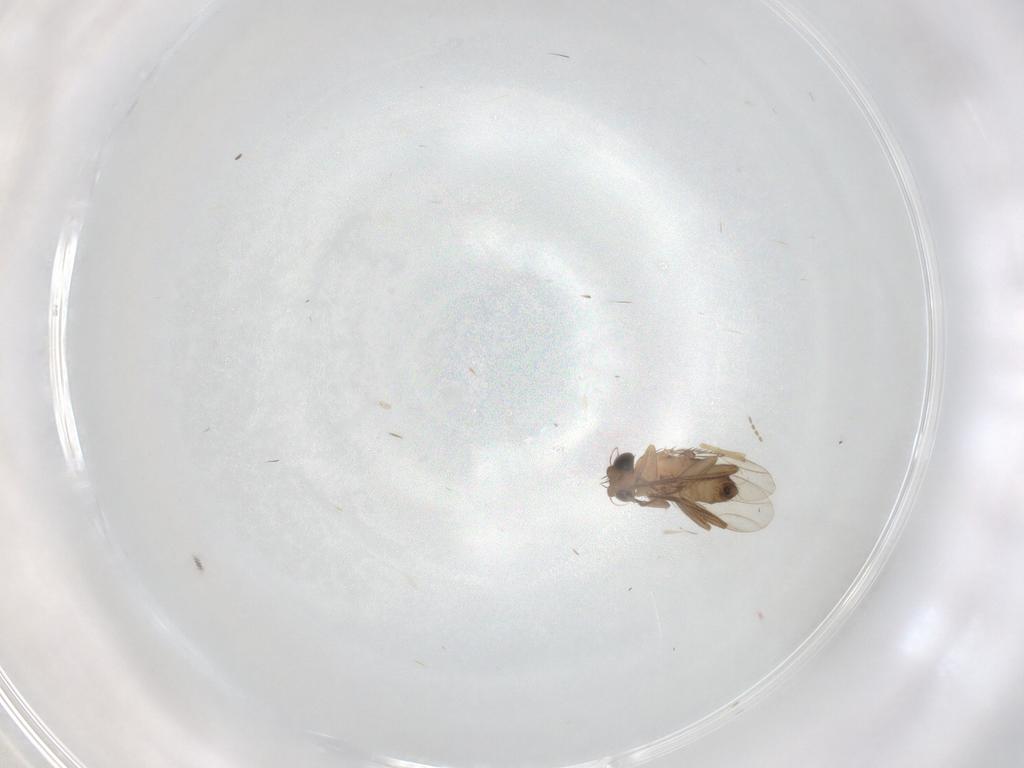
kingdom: Animalia
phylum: Arthropoda
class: Insecta
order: Diptera
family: Phoridae
